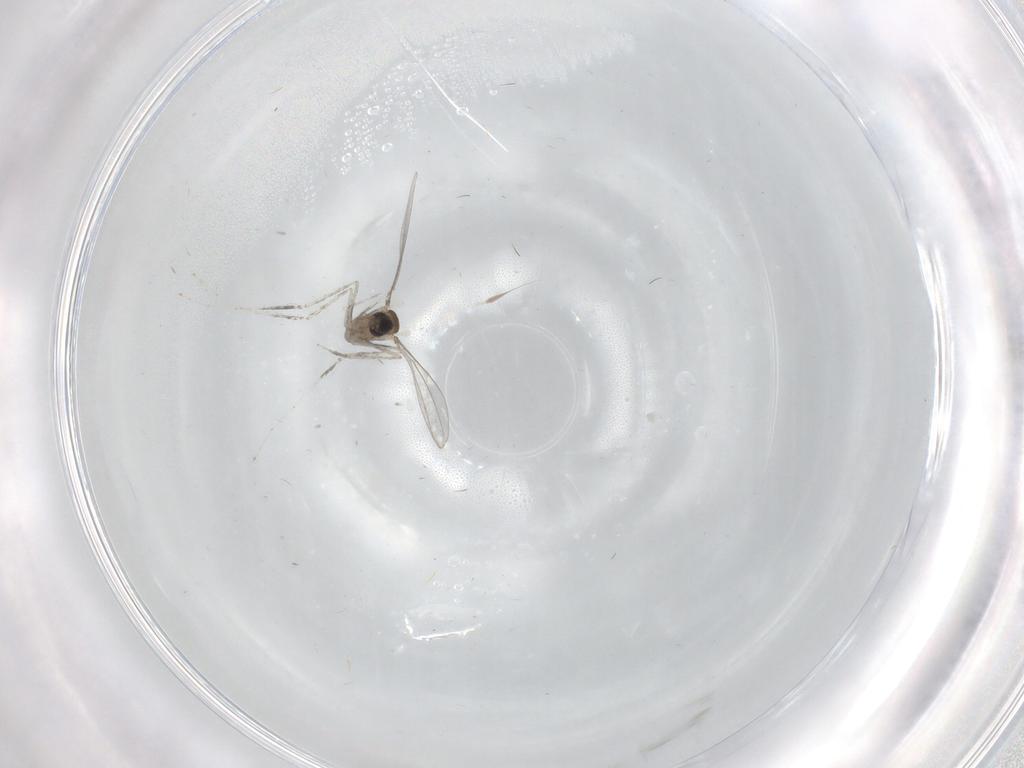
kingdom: Animalia
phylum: Arthropoda
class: Insecta
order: Diptera
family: Cecidomyiidae
